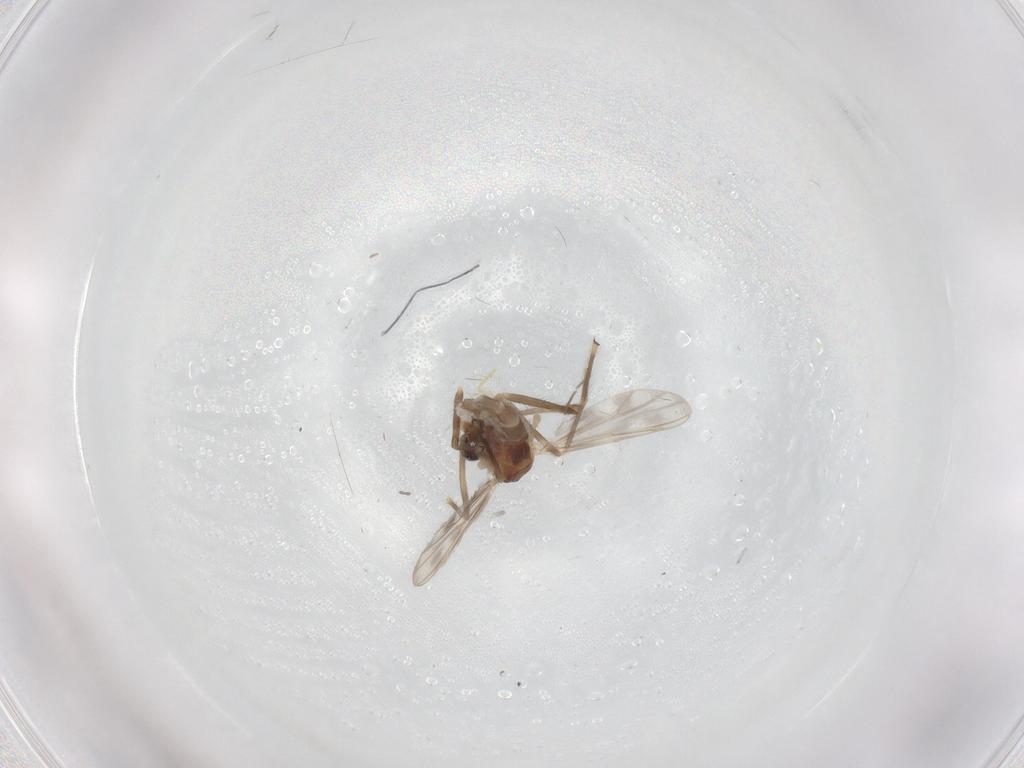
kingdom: Animalia
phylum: Arthropoda
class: Insecta
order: Diptera
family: Chironomidae
